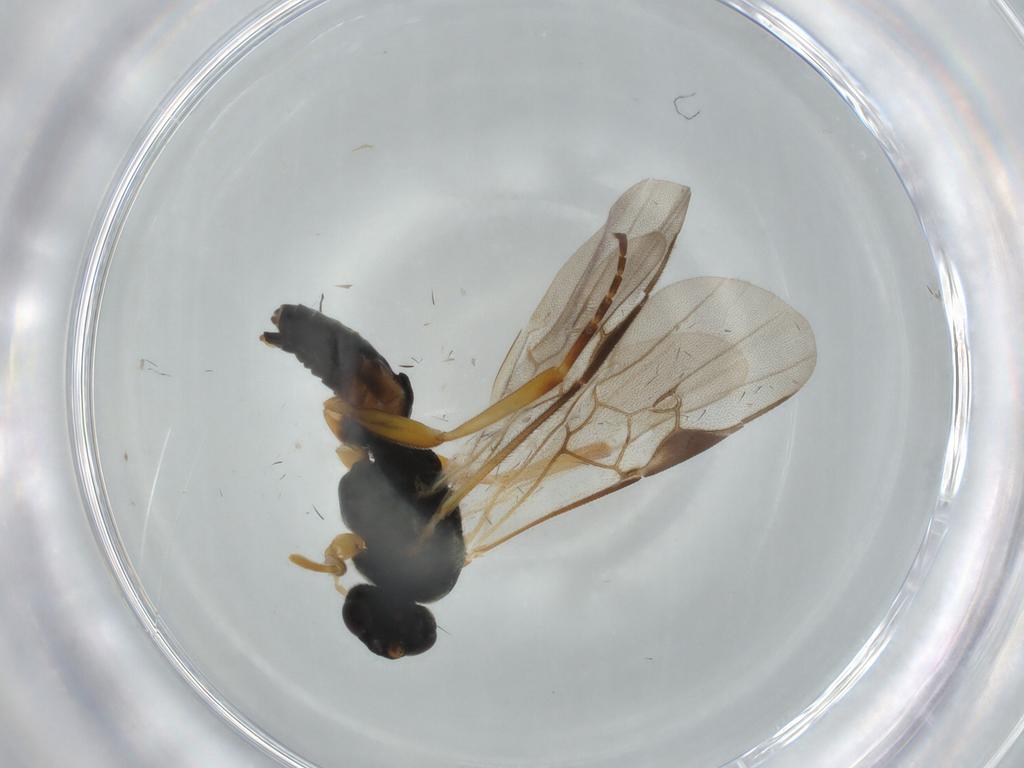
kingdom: Animalia
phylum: Arthropoda
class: Insecta
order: Hymenoptera
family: Braconidae
